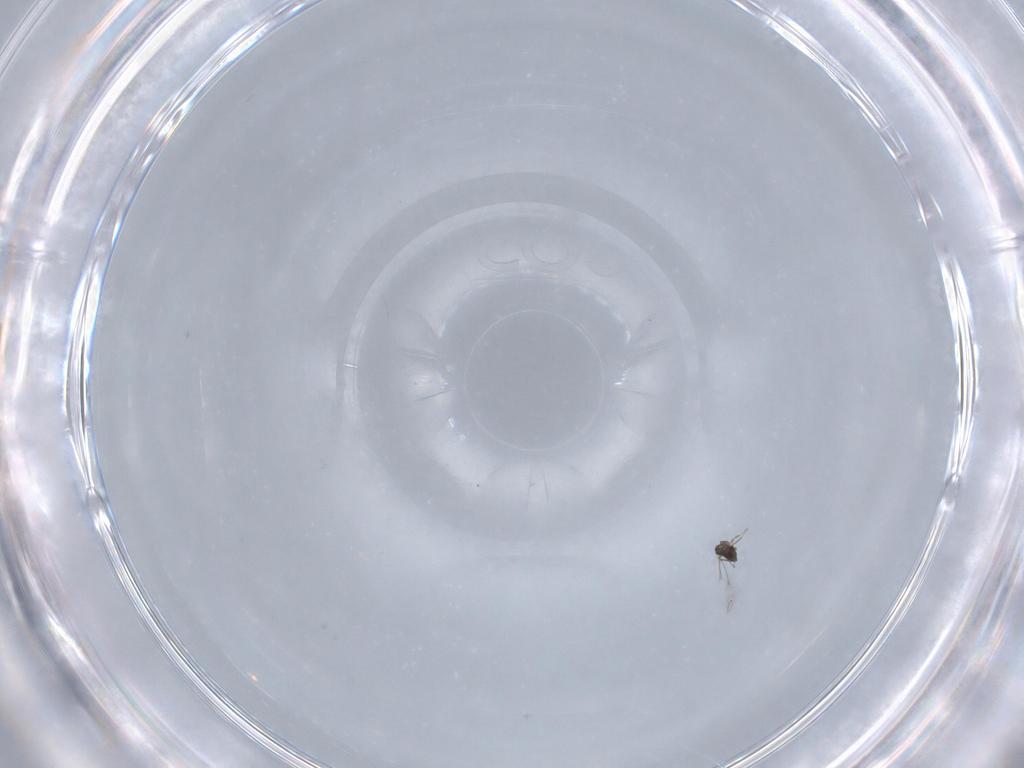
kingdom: Animalia
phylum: Arthropoda
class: Insecta
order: Hymenoptera
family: Mymaridae
